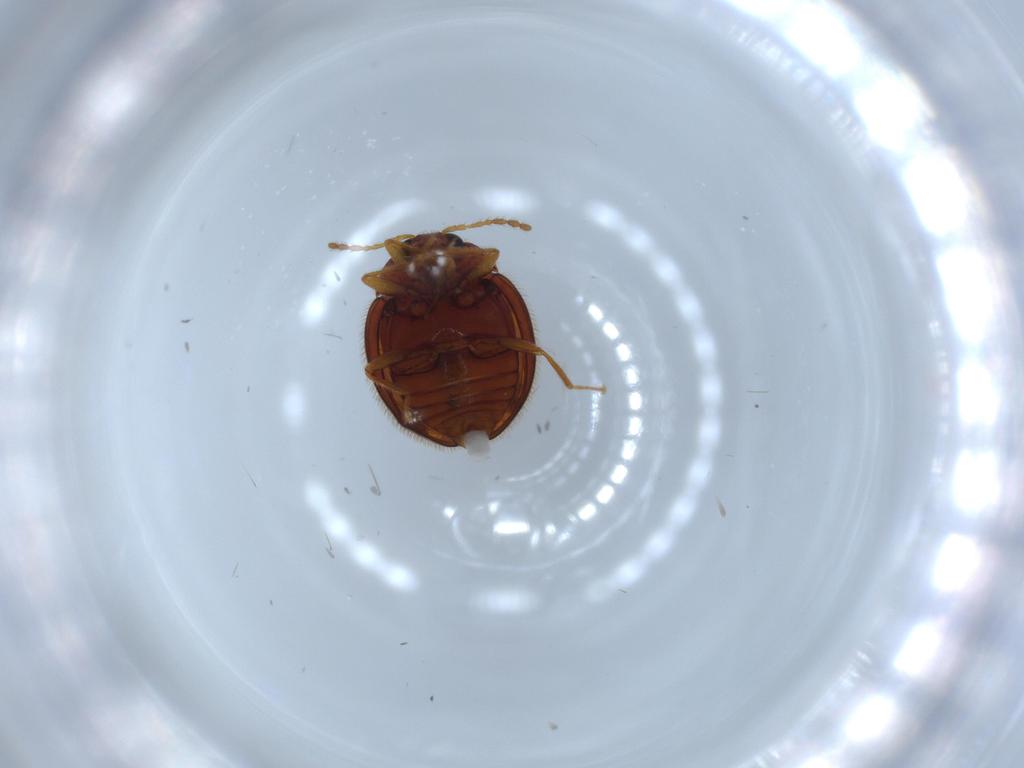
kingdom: Animalia
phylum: Arthropoda
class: Insecta
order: Coleoptera
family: Anamorphidae
